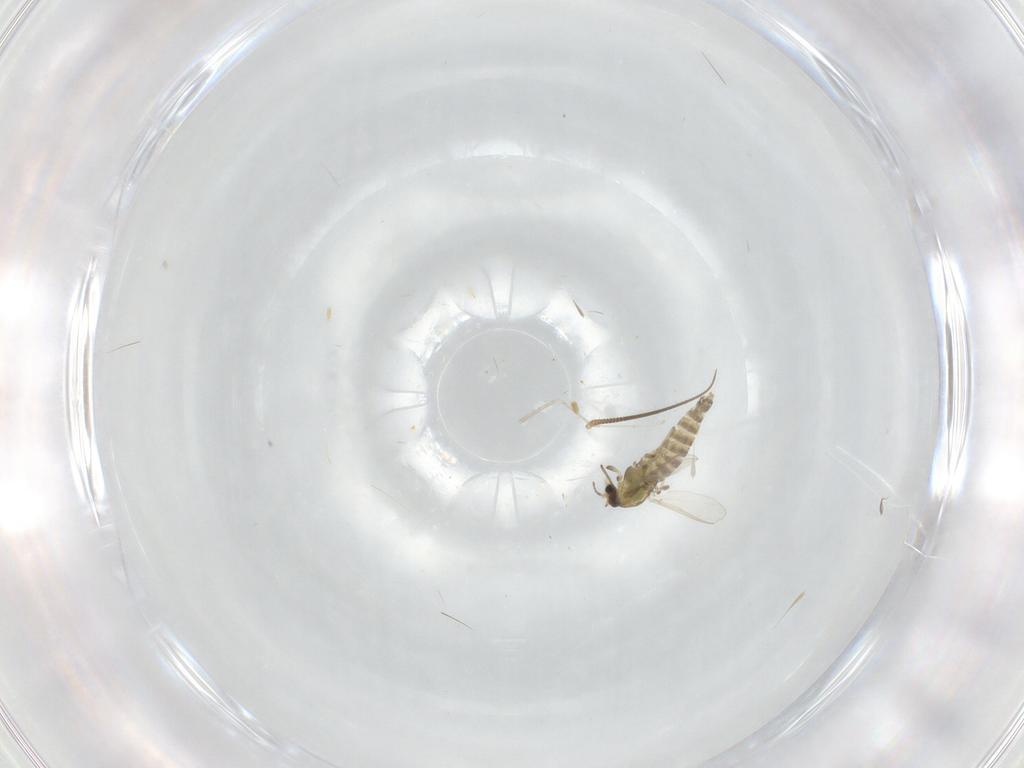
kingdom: Animalia
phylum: Arthropoda
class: Insecta
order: Diptera
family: Chironomidae
